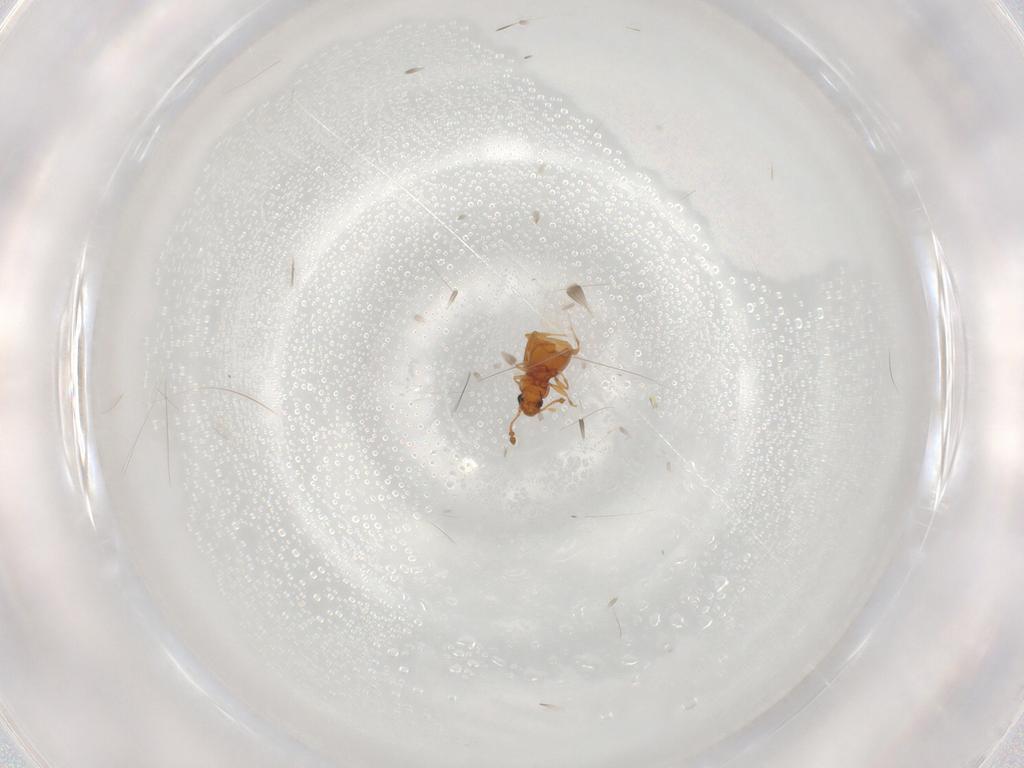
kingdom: Animalia
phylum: Arthropoda
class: Insecta
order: Coleoptera
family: Staphylinidae
